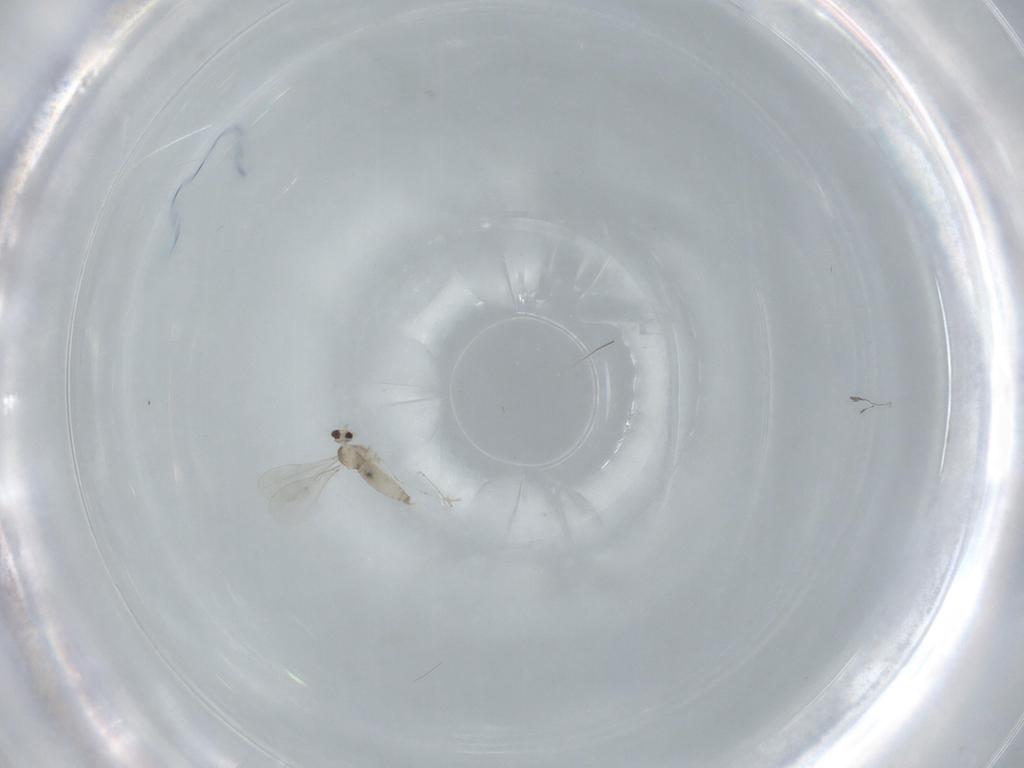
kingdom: Animalia
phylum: Arthropoda
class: Insecta
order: Diptera
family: Cecidomyiidae
